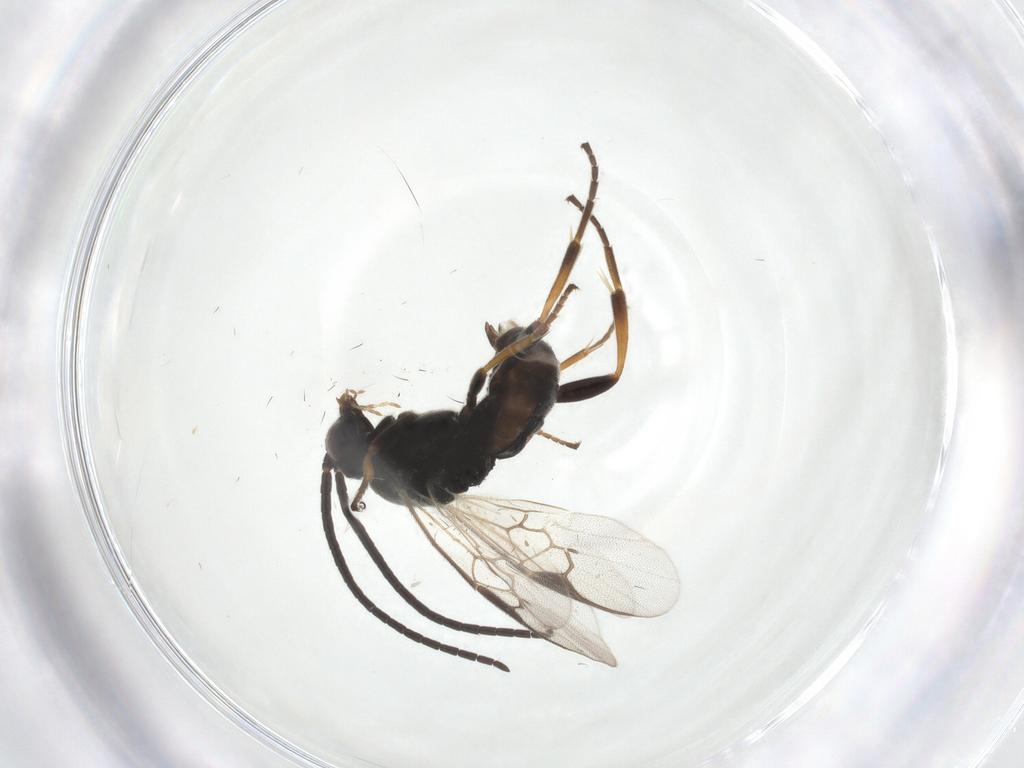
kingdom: Animalia
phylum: Arthropoda
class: Insecta
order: Hymenoptera
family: Braconidae
